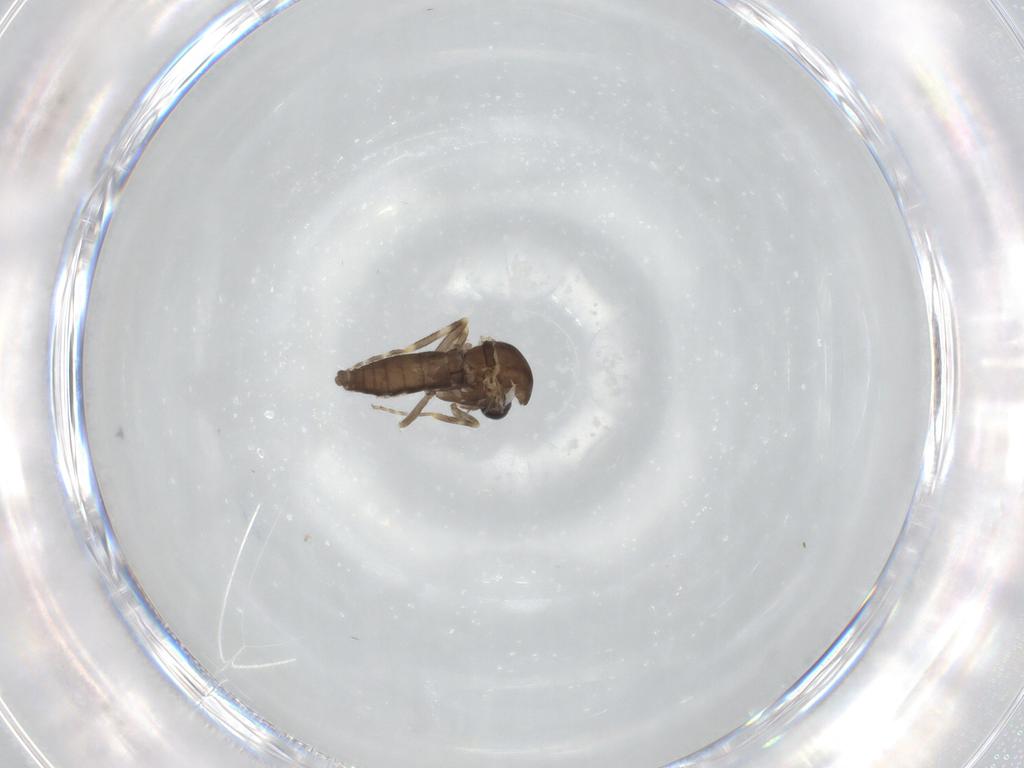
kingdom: Animalia
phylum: Arthropoda
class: Insecta
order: Diptera
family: Ceratopogonidae
